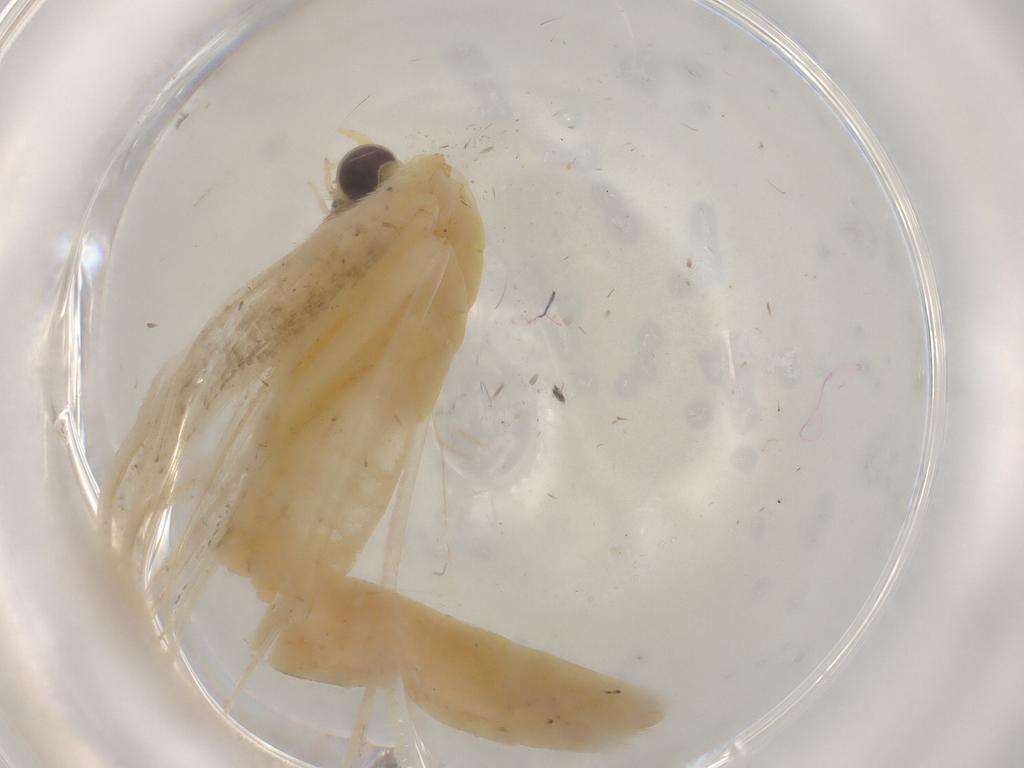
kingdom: Animalia
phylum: Arthropoda
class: Insecta
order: Lepidoptera
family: Pterophoridae
